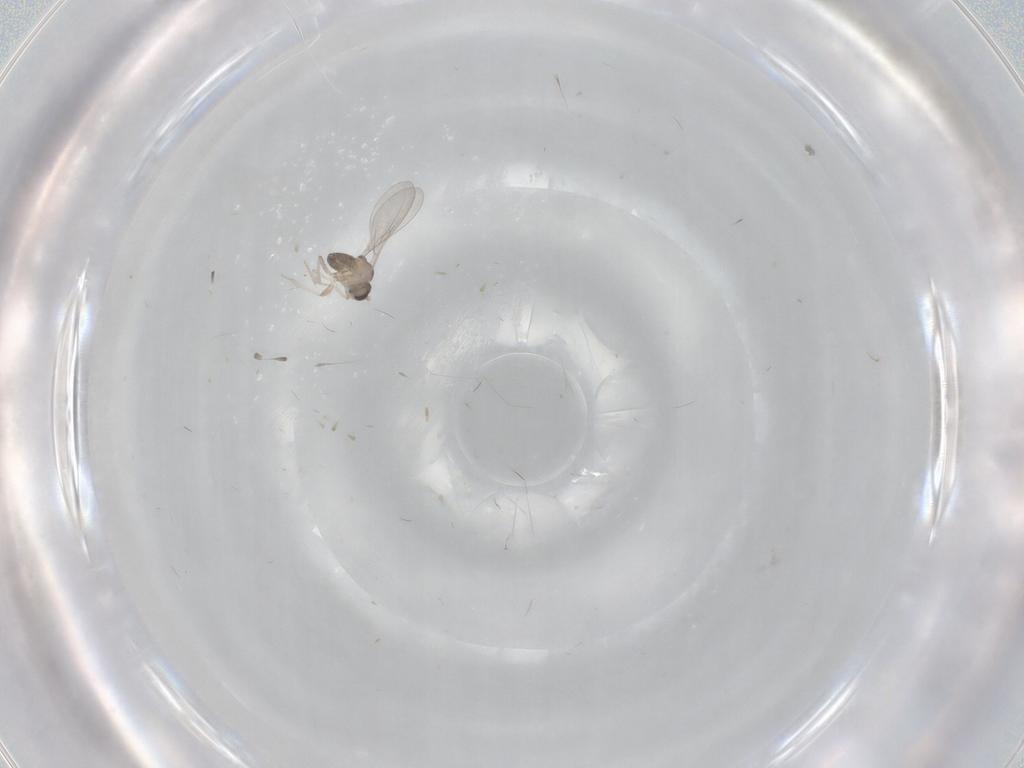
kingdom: Animalia
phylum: Arthropoda
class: Insecta
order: Diptera
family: Cecidomyiidae
